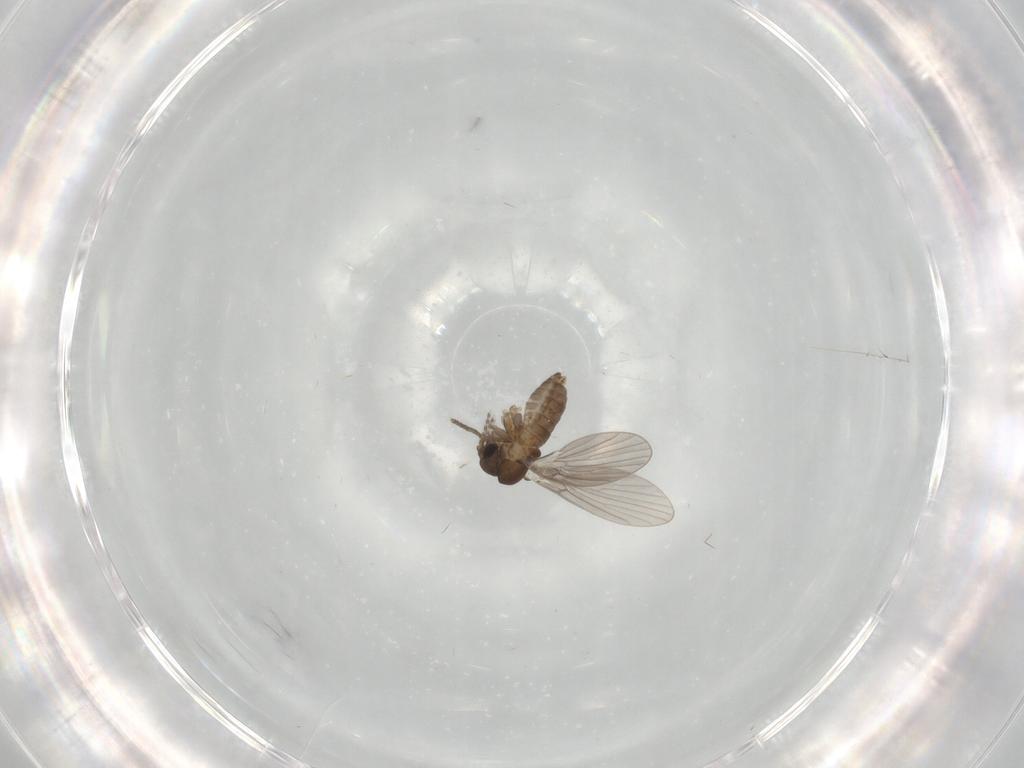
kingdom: Animalia
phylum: Arthropoda
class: Insecta
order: Diptera
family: Psychodidae
